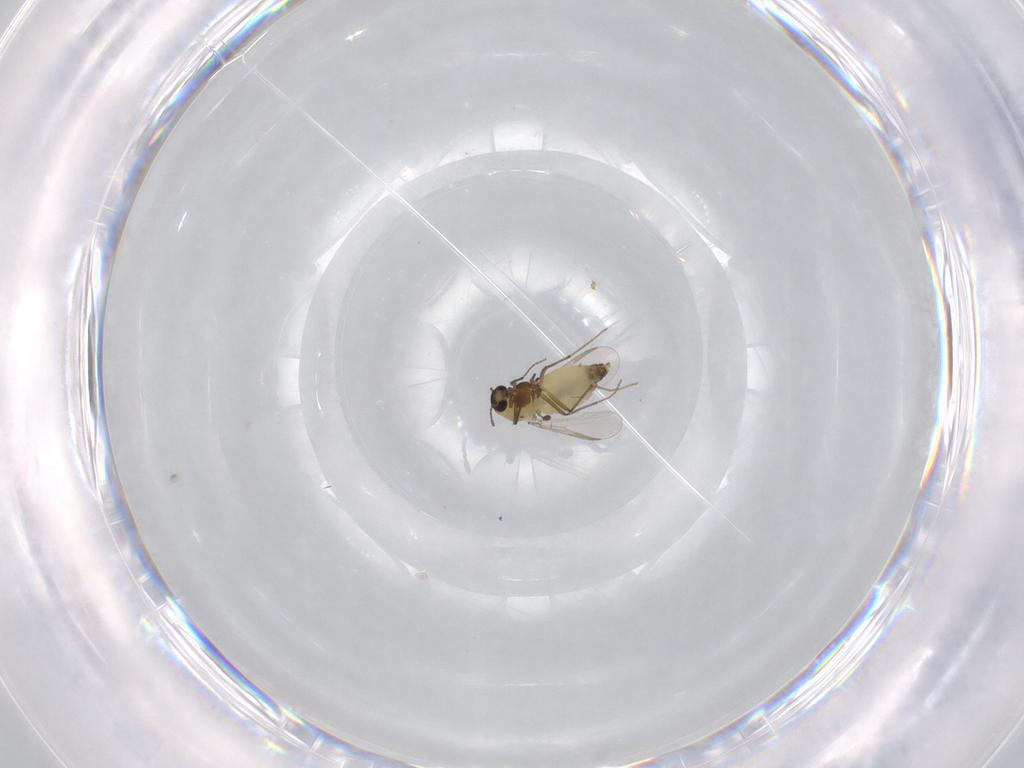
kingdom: Animalia
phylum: Arthropoda
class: Insecta
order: Diptera
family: Chironomidae
